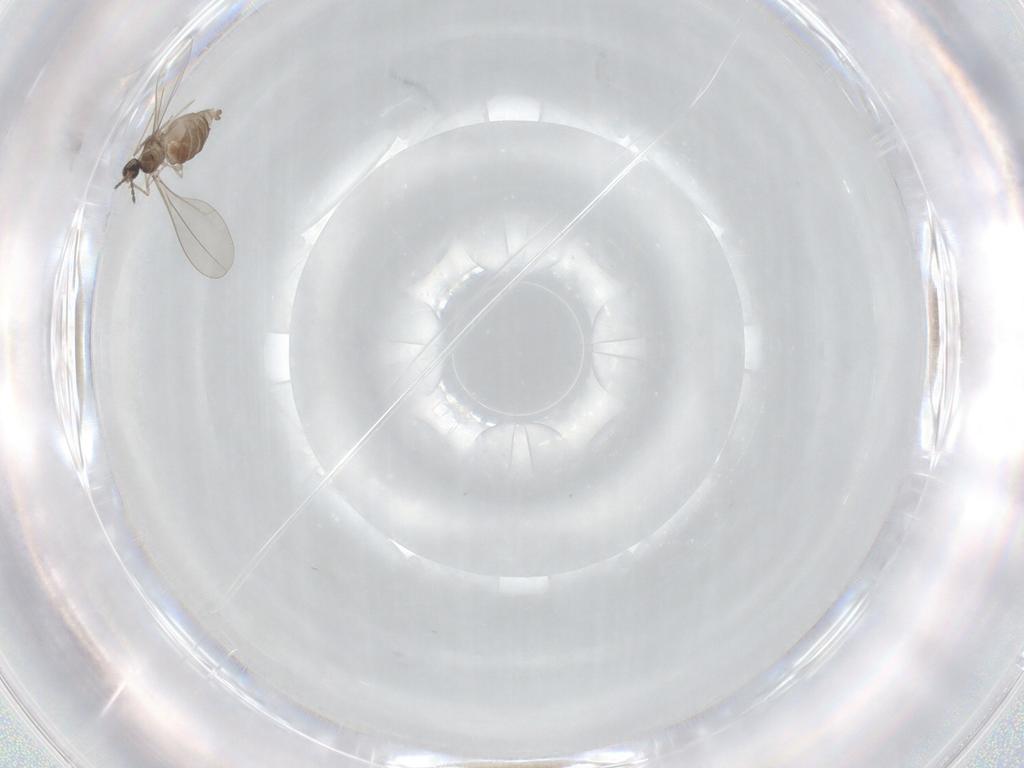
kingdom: Animalia
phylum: Arthropoda
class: Insecta
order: Diptera
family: Cecidomyiidae
